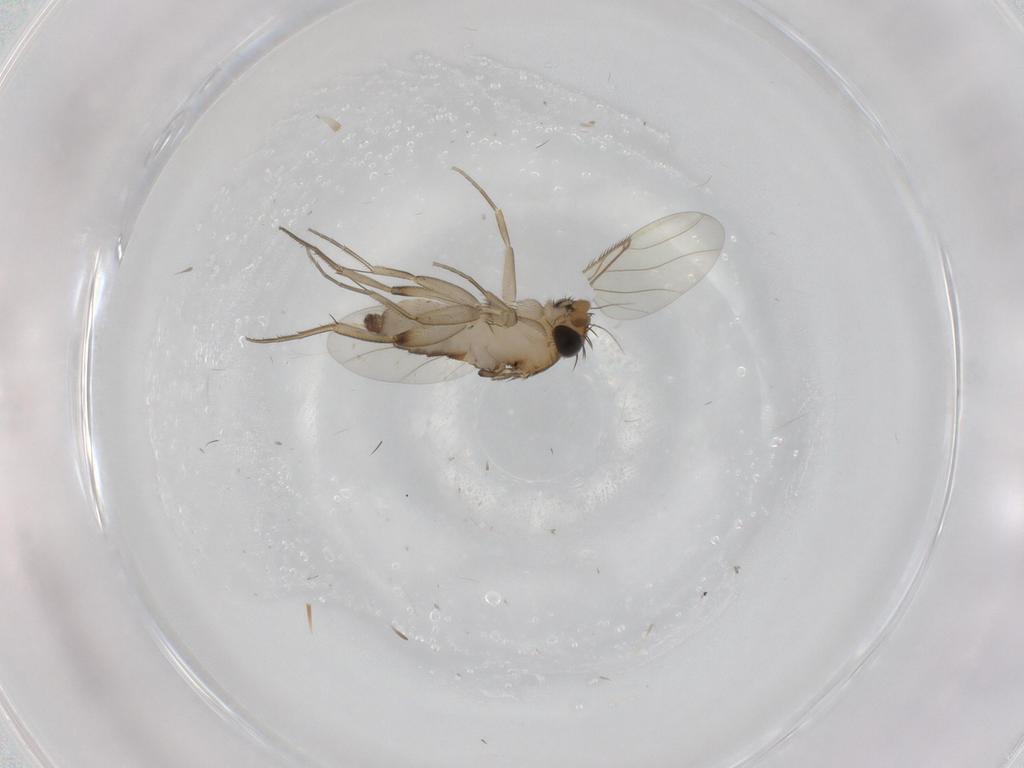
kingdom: Animalia
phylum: Arthropoda
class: Insecta
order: Diptera
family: Phoridae
